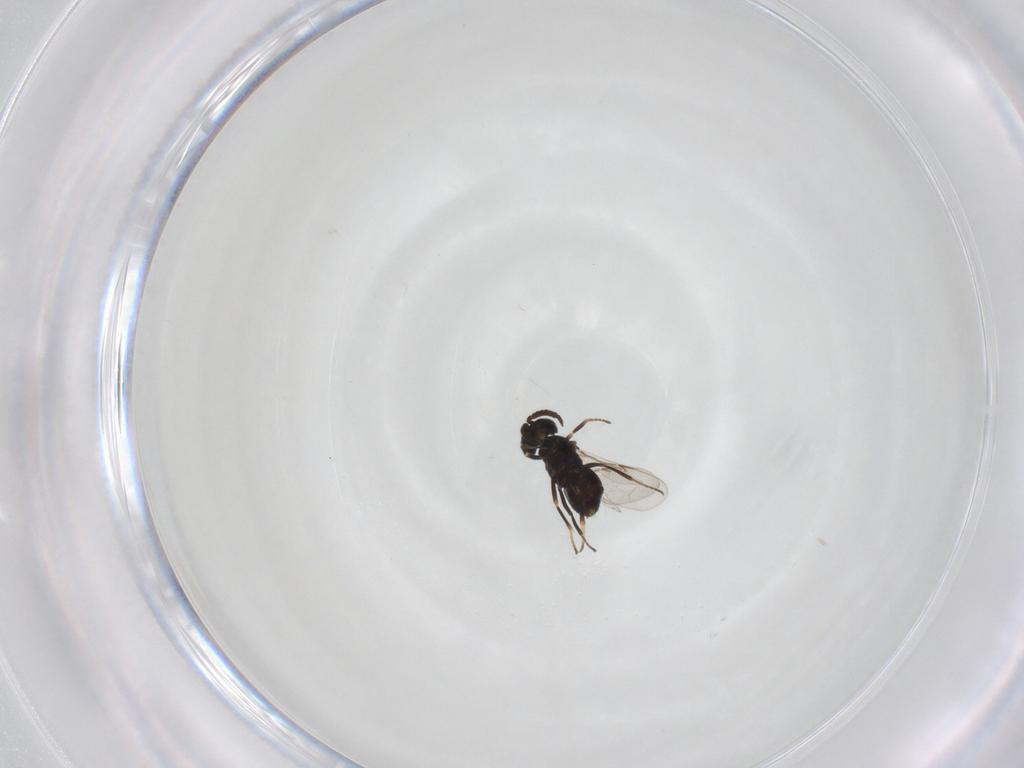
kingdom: Animalia
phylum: Arthropoda
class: Insecta
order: Hymenoptera
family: Encyrtidae
